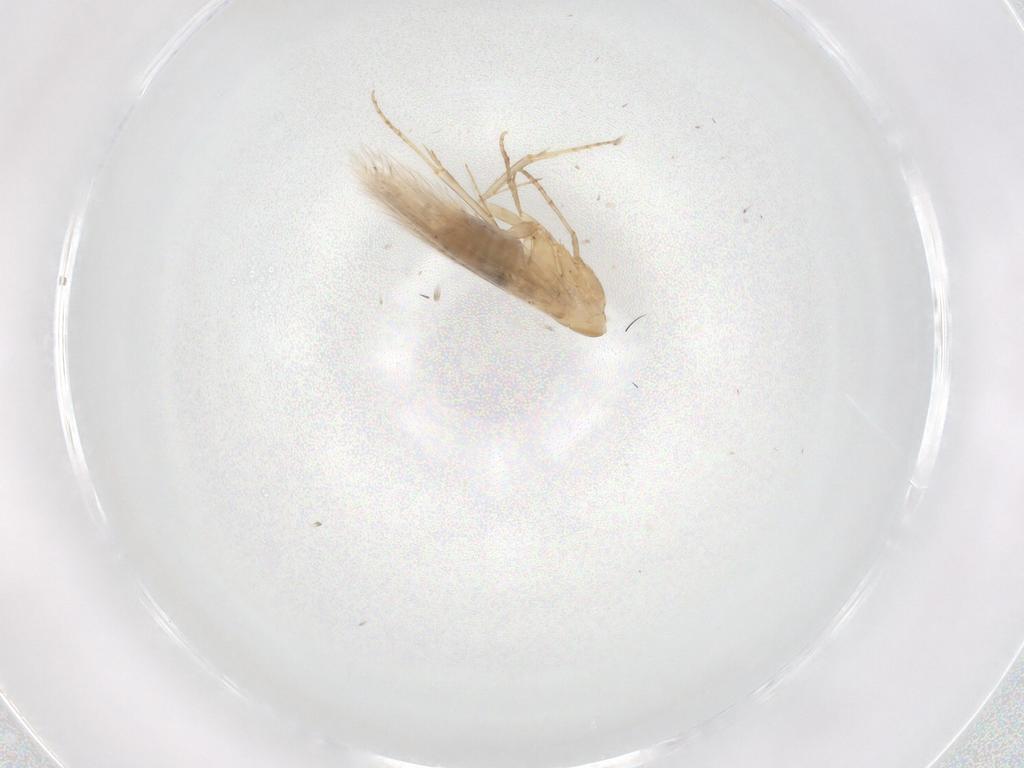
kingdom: Animalia
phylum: Arthropoda
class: Insecta
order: Lepidoptera
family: Bucculatricidae
